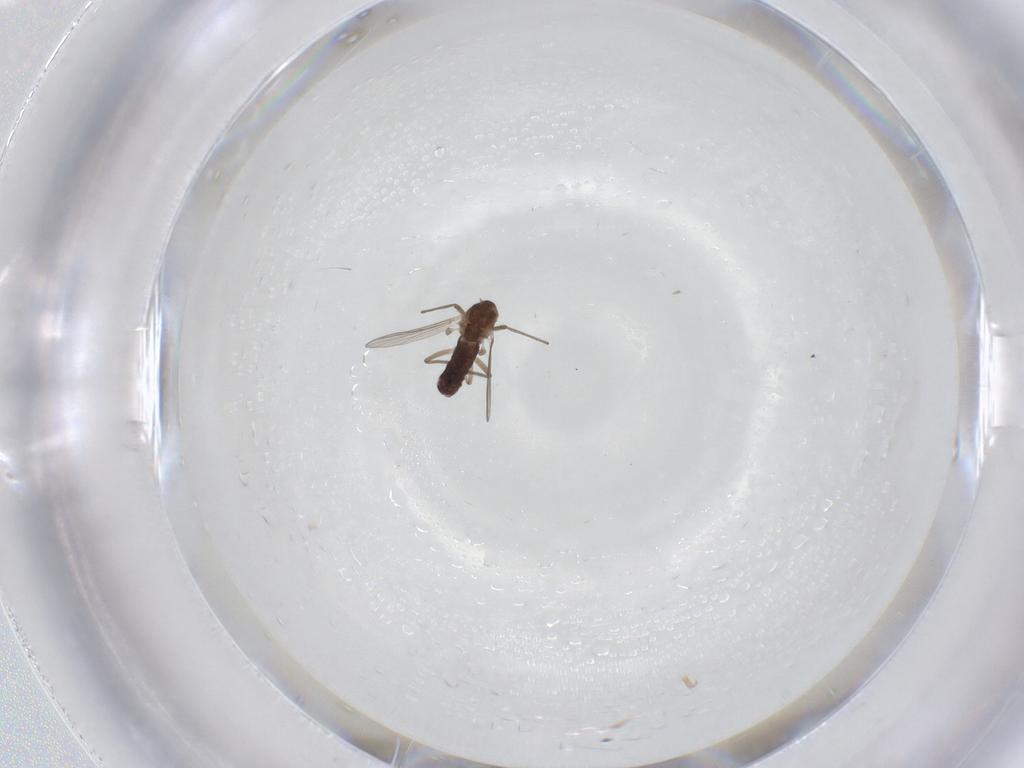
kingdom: Animalia
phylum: Arthropoda
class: Insecta
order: Diptera
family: Chironomidae
